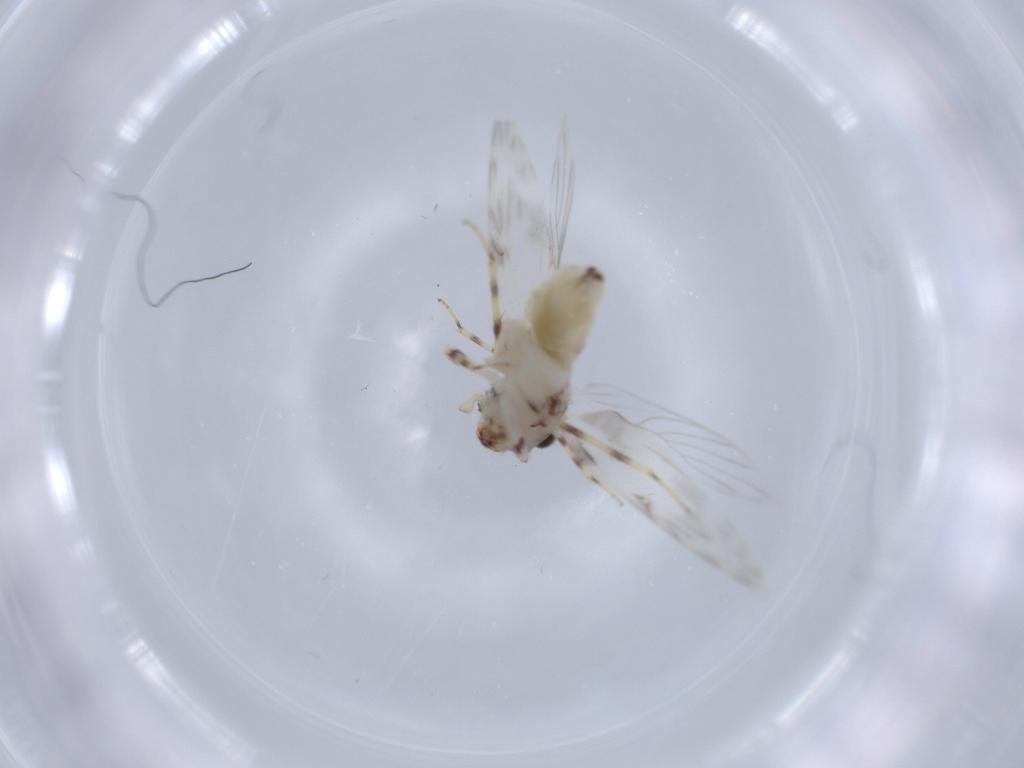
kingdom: Animalia
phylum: Arthropoda
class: Insecta
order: Psocodea
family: Lepidopsocidae
